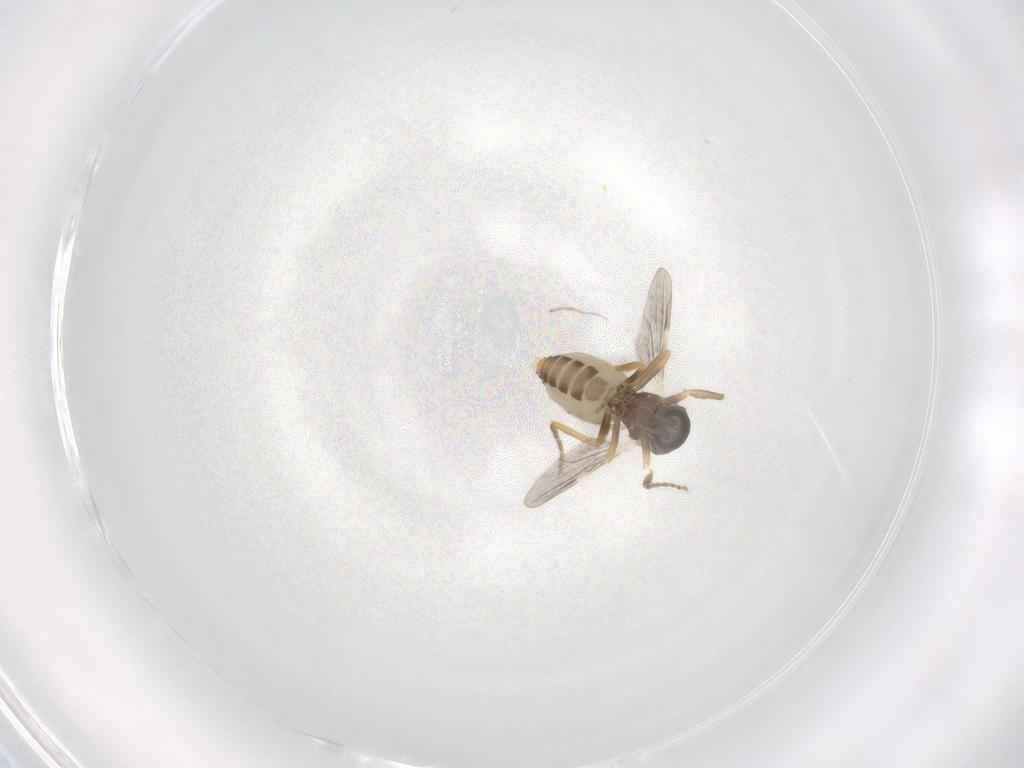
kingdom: Animalia
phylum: Arthropoda
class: Insecta
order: Diptera
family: Ceratopogonidae
